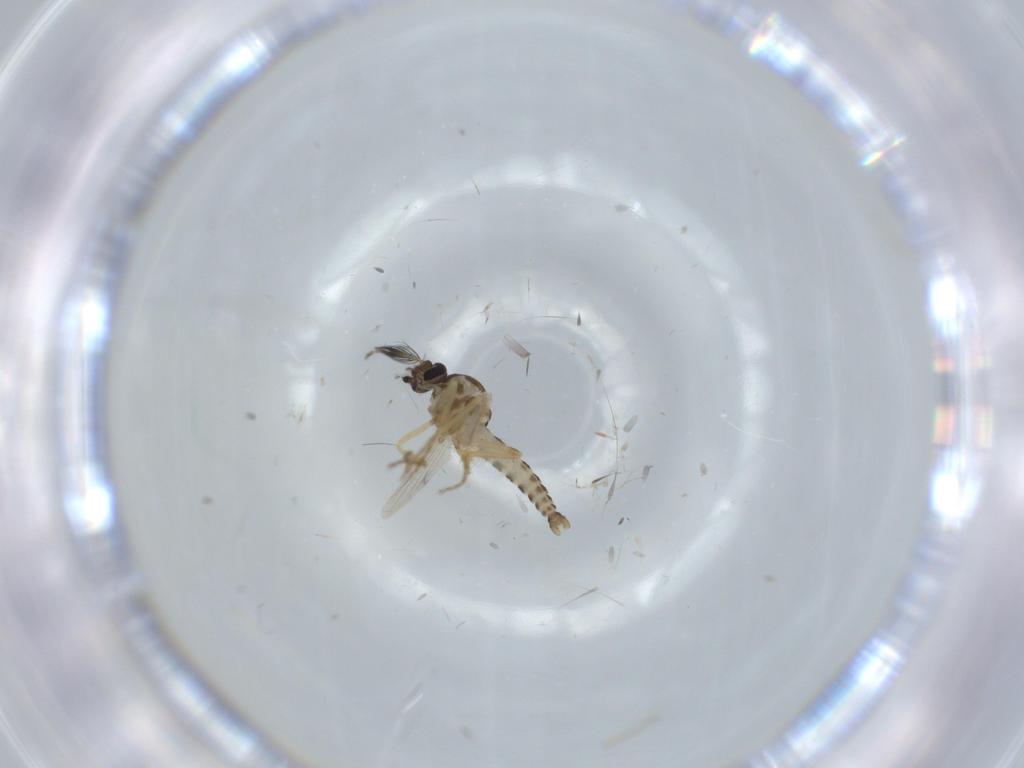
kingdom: Animalia
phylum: Arthropoda
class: Insecta
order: Diptera
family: Ceratopogonidae
